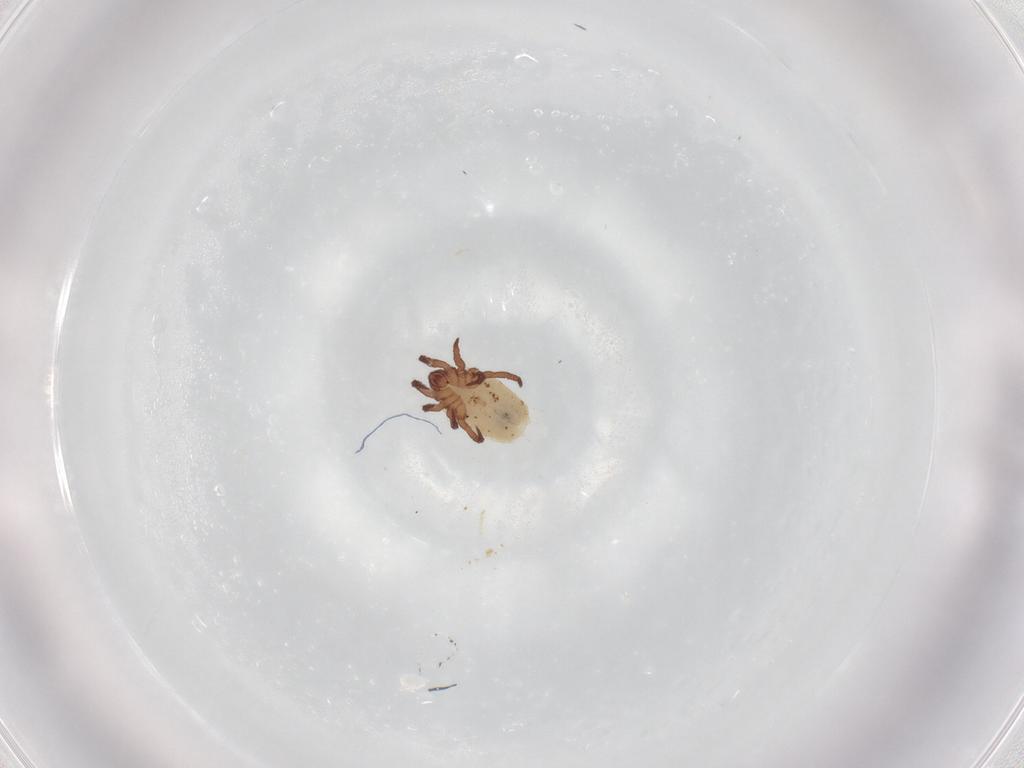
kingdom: Animalia
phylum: Arthropoda
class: Arachnida
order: Sarcoptiformes
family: Nothridae
